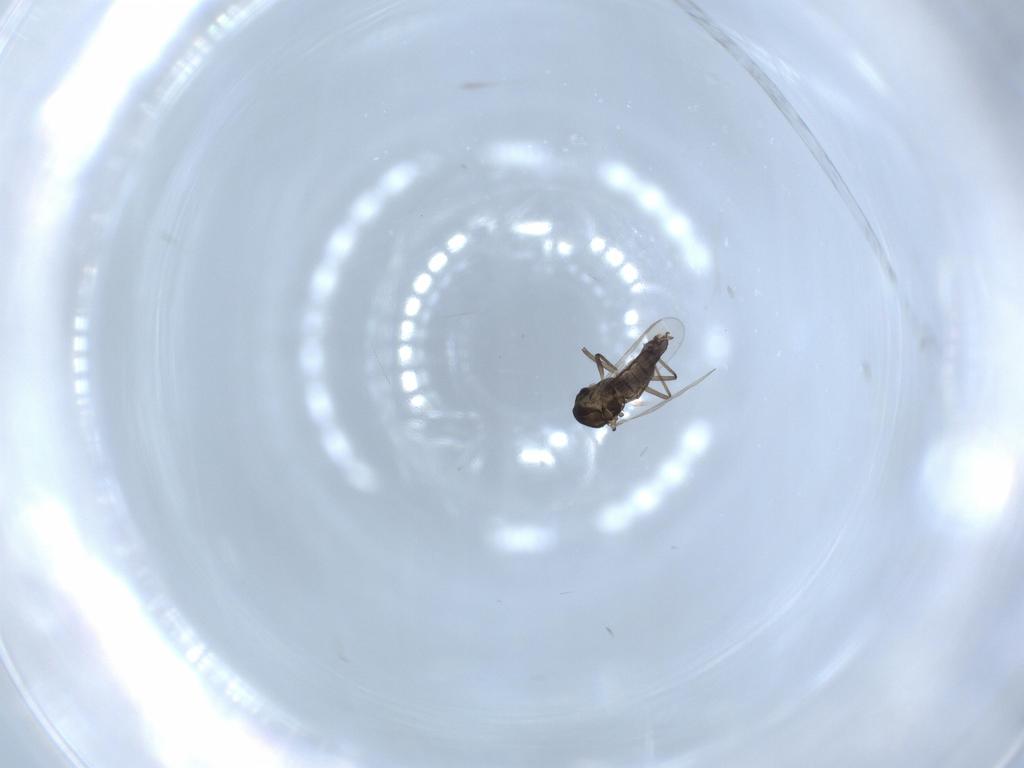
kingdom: Animalia
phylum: Arthropoda
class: Insecta
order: Diptera
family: Chironomidae
